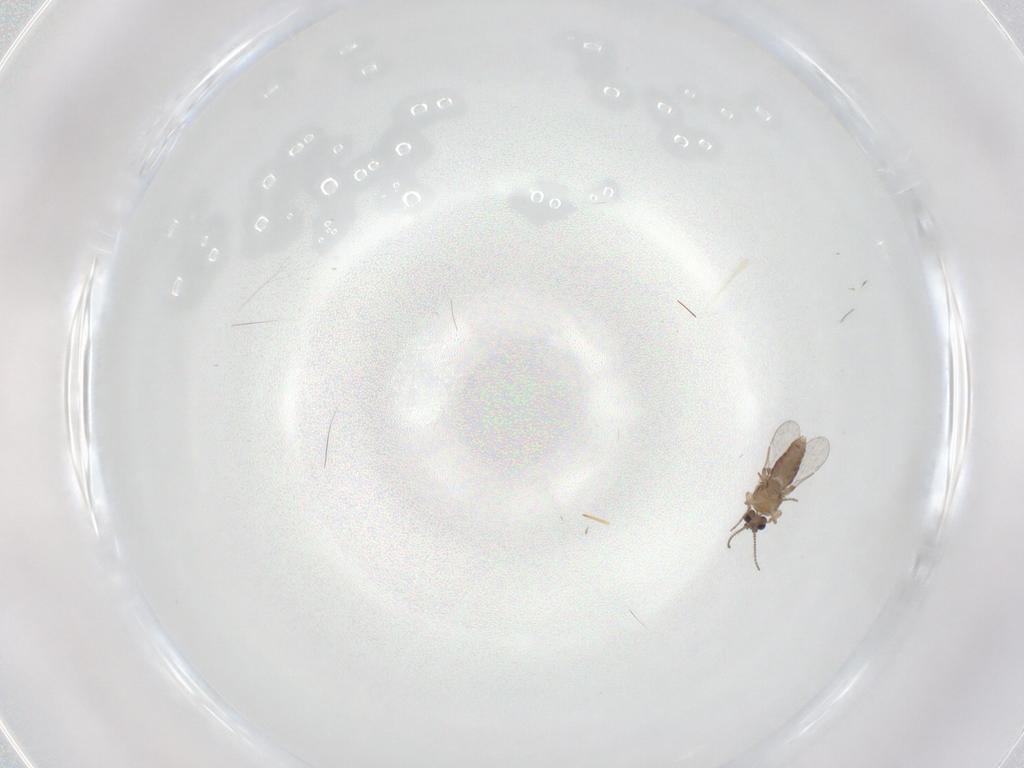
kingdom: Animalia
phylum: Arthropoda
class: Insecta
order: Diptera
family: Ceratopogonidae
